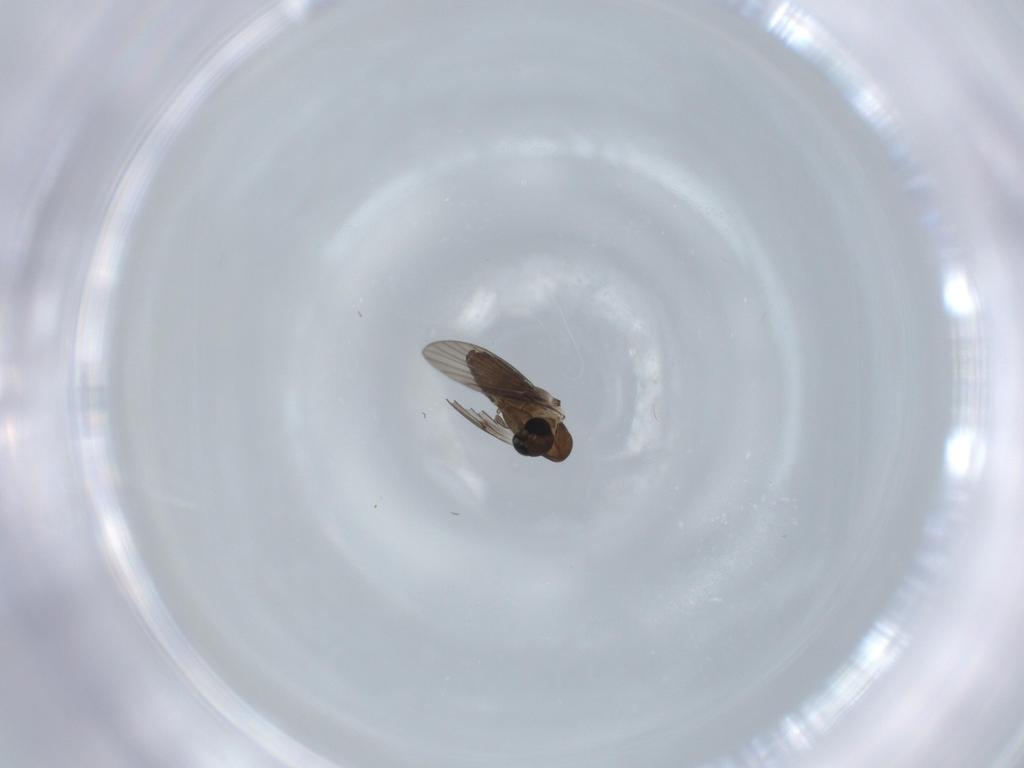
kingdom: Animalia
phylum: Arthropoda
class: Insecta
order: Diptera
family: Psychodidae
